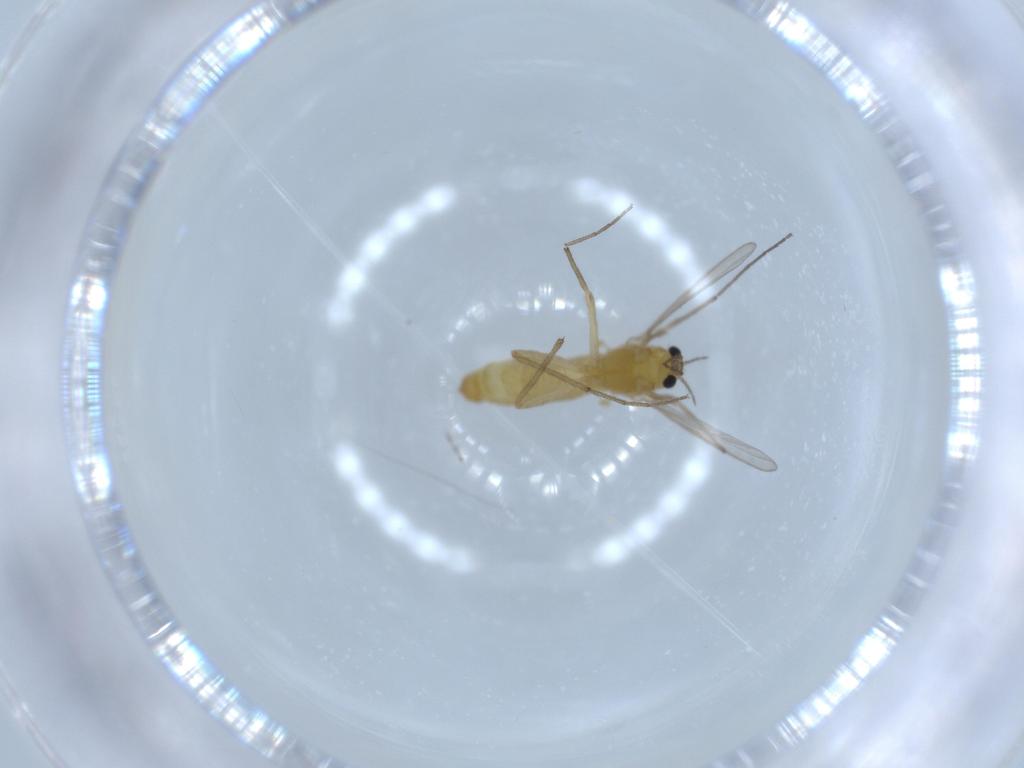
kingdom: Animalia
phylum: Arthropoda
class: Insecta
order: Diptera
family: Chironomidae
